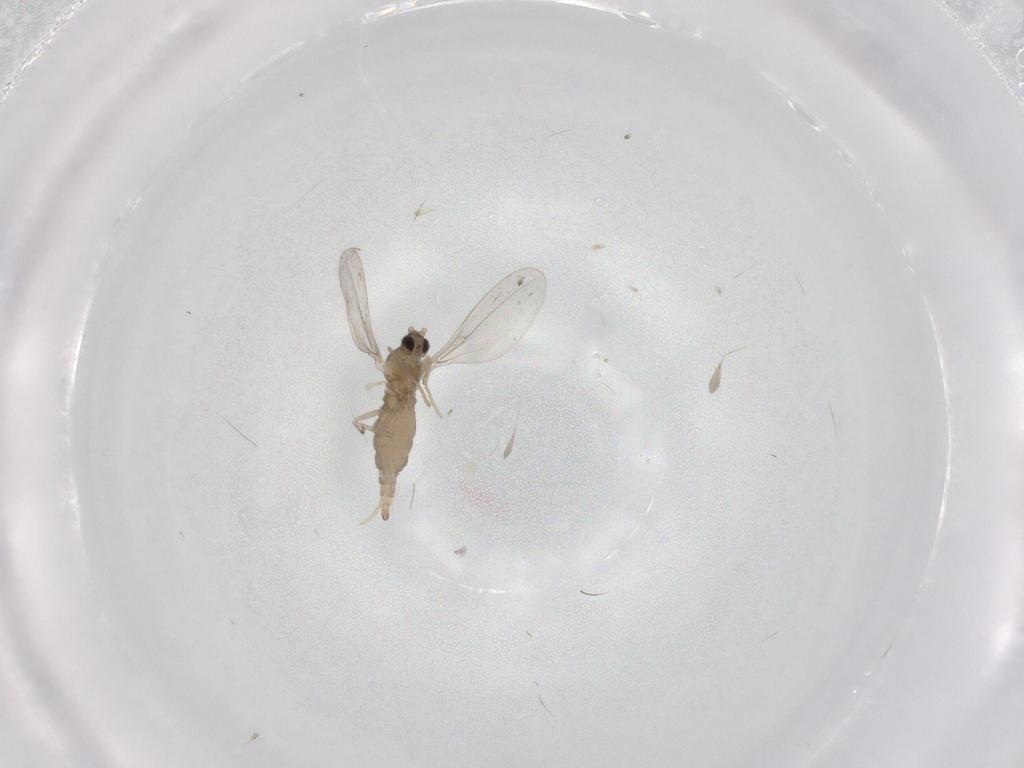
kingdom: Animalia
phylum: Arthropoda
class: Insecta
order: Diptera
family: Cecidomyiidae
